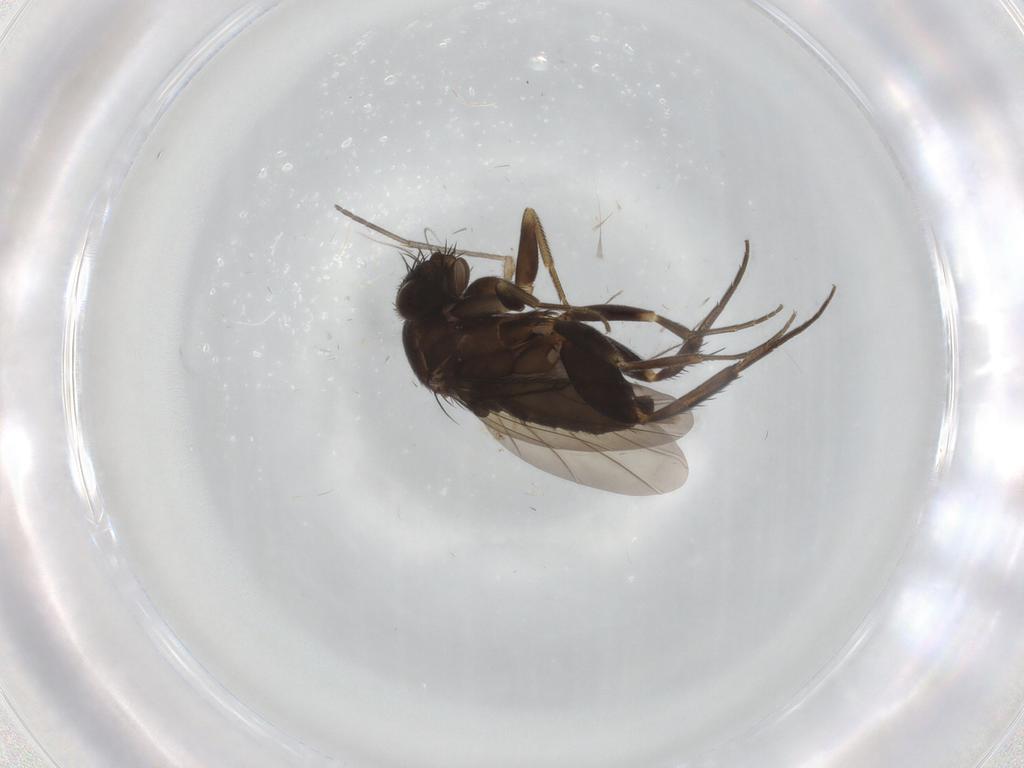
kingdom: Animalia
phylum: Arthropoda
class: Insecta
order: Diptera
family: Sciaridae
